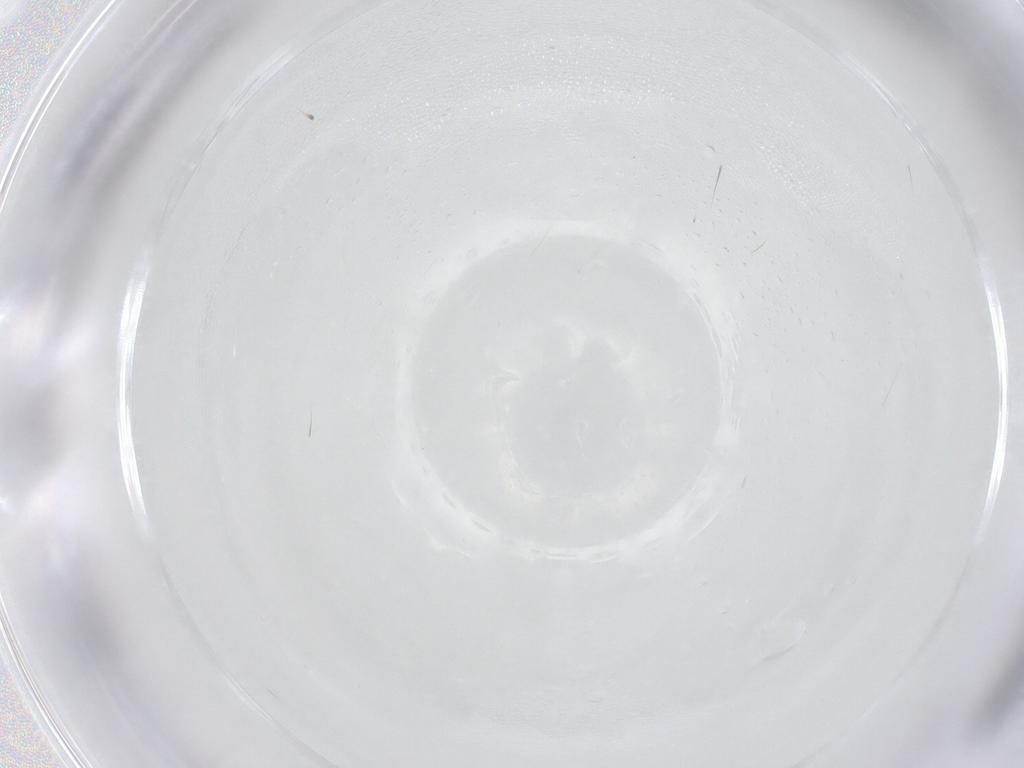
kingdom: Animalia
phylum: Arthropoda
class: Insecta
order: Diptera
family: Cecidomyiidae
